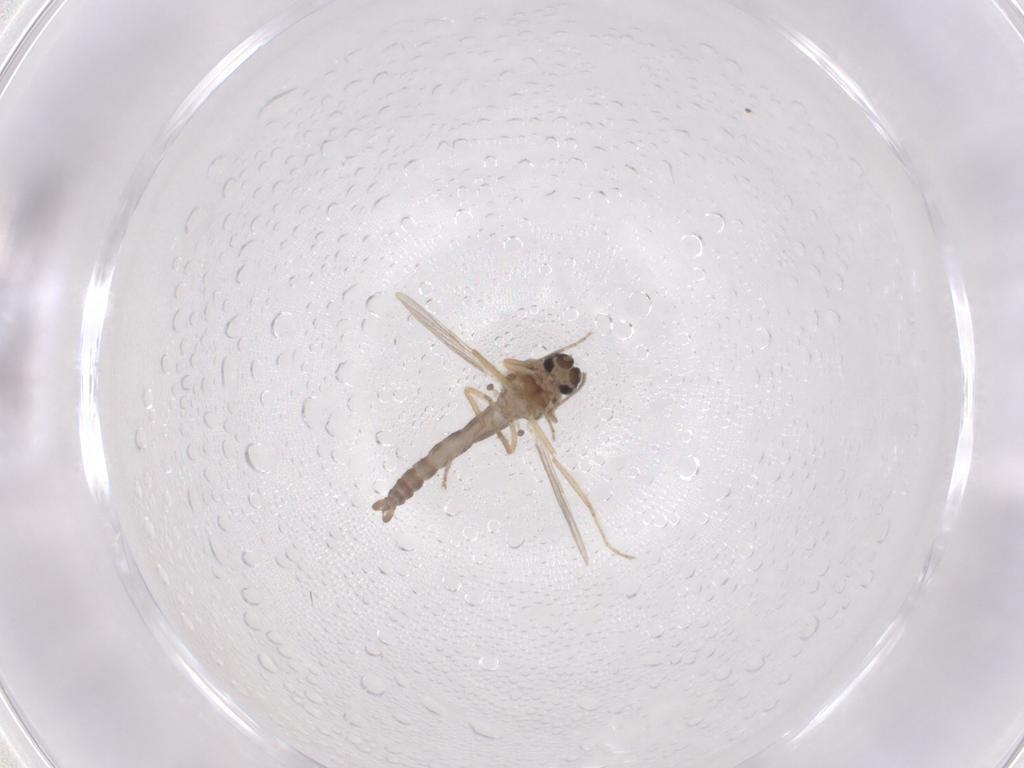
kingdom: Animalia
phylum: Arthropoda
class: Insecta
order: Diptera
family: Cecidomyiidae
